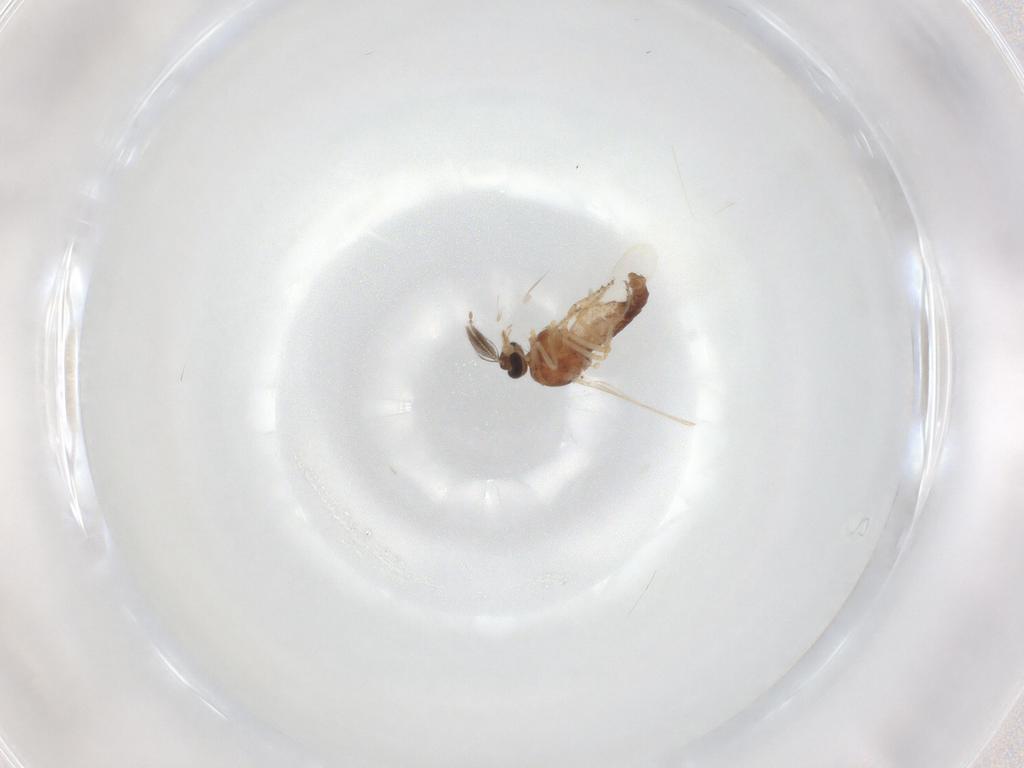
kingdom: Animalia
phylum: Arthropoda
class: Insecta
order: Diptera
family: Ceratopogonidae
